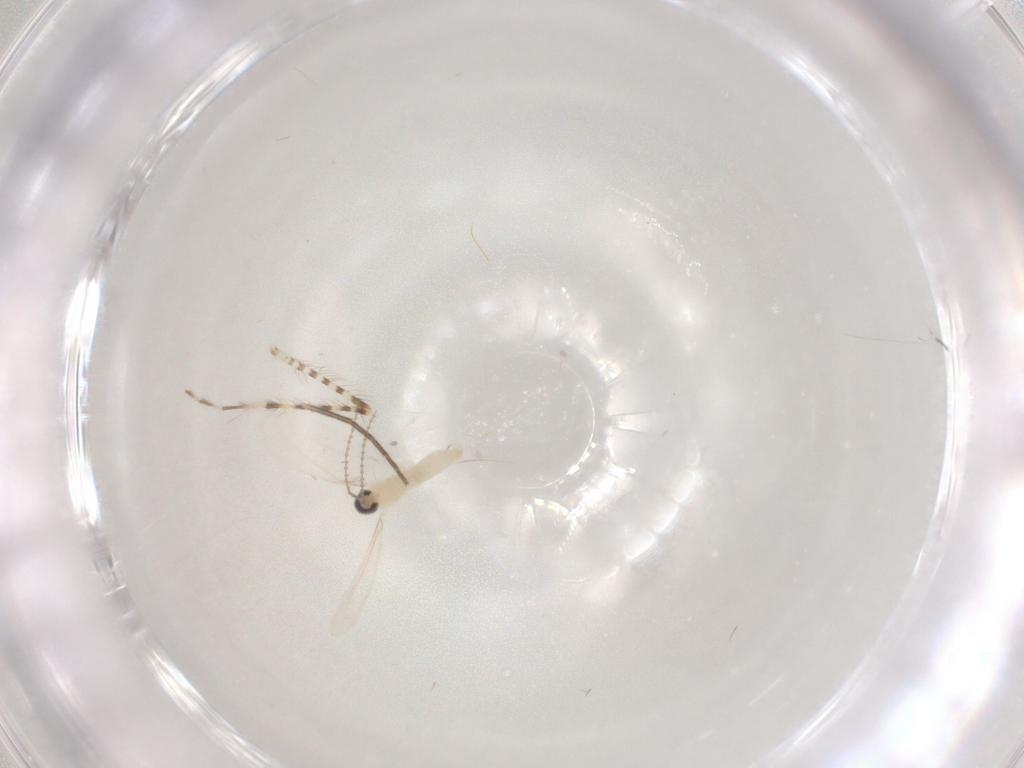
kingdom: Animalia
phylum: Arthropoda
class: Insecta
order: Diptera
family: Cecidomyiidae
